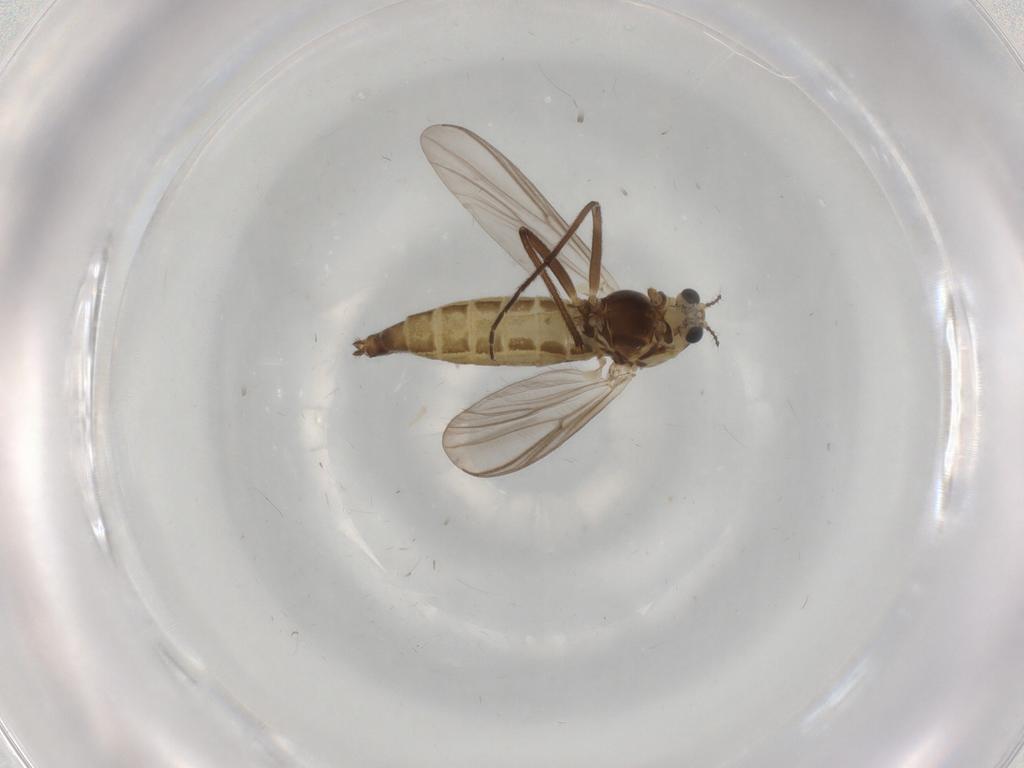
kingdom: Animalia
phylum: Arthropoda
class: Insecta
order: Diptera
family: Chironomidae
